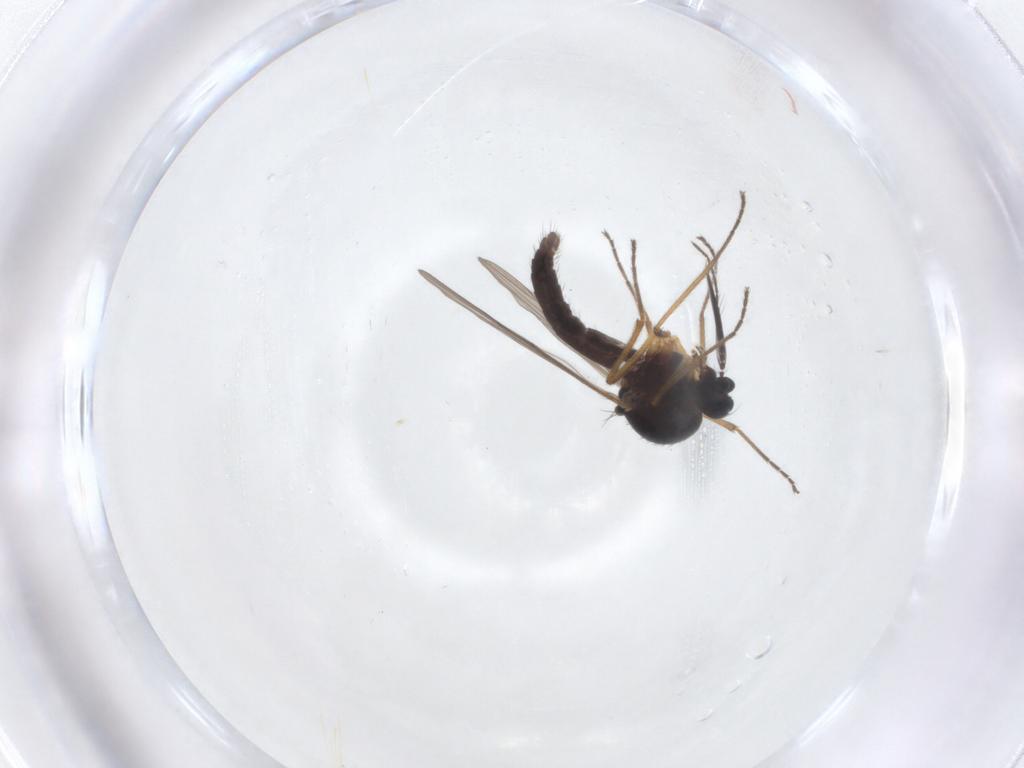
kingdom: Animalia
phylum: Arthropoda
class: Insecta
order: Diptera
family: Ceratopogonidae
